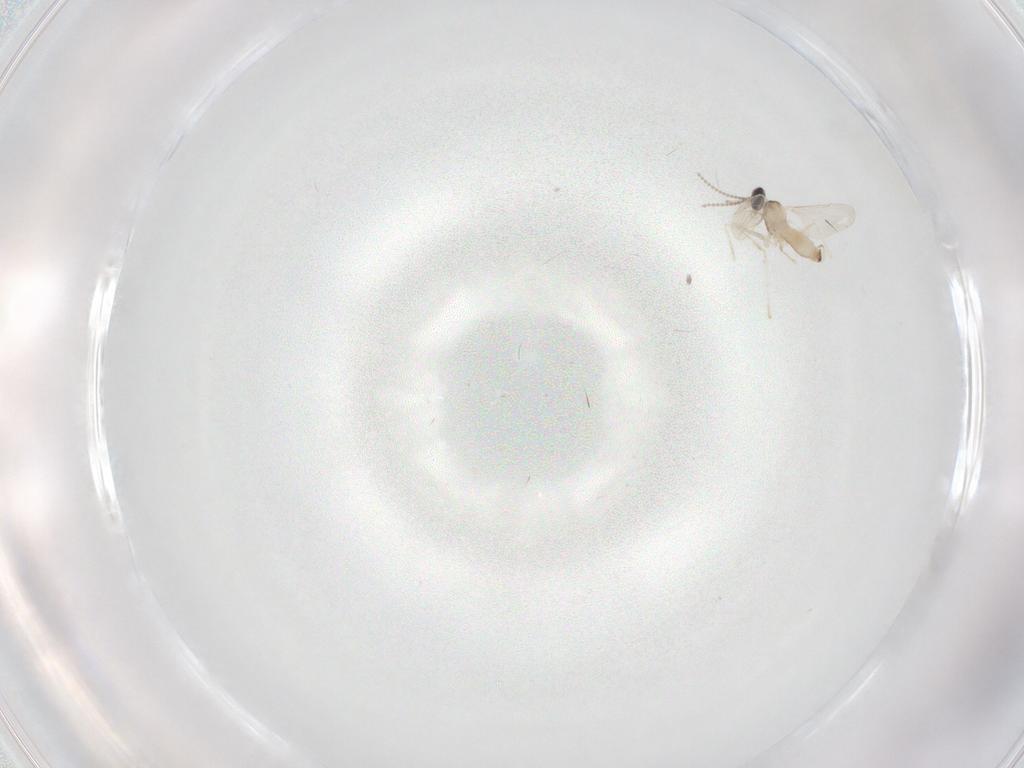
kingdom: Animalia
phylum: Arthropoda
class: Insecta
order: Diptera
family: Cecidomyiidae
